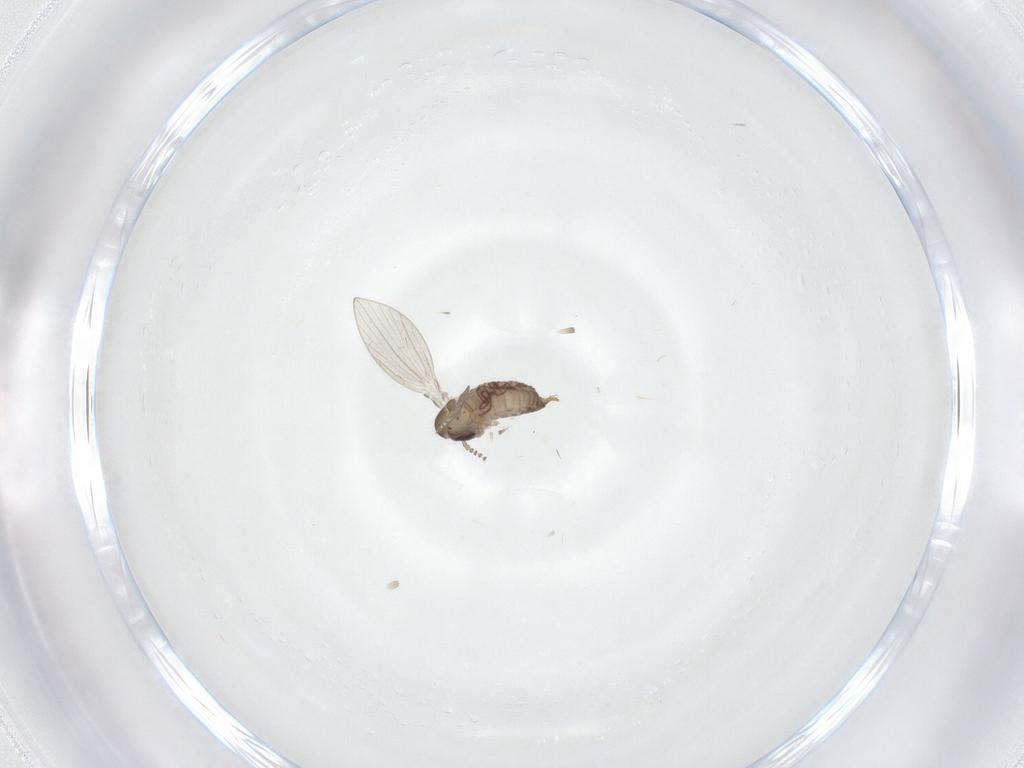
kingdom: Animalia
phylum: Arthropoda
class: Insecta
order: Diptera
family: Psychodidae
